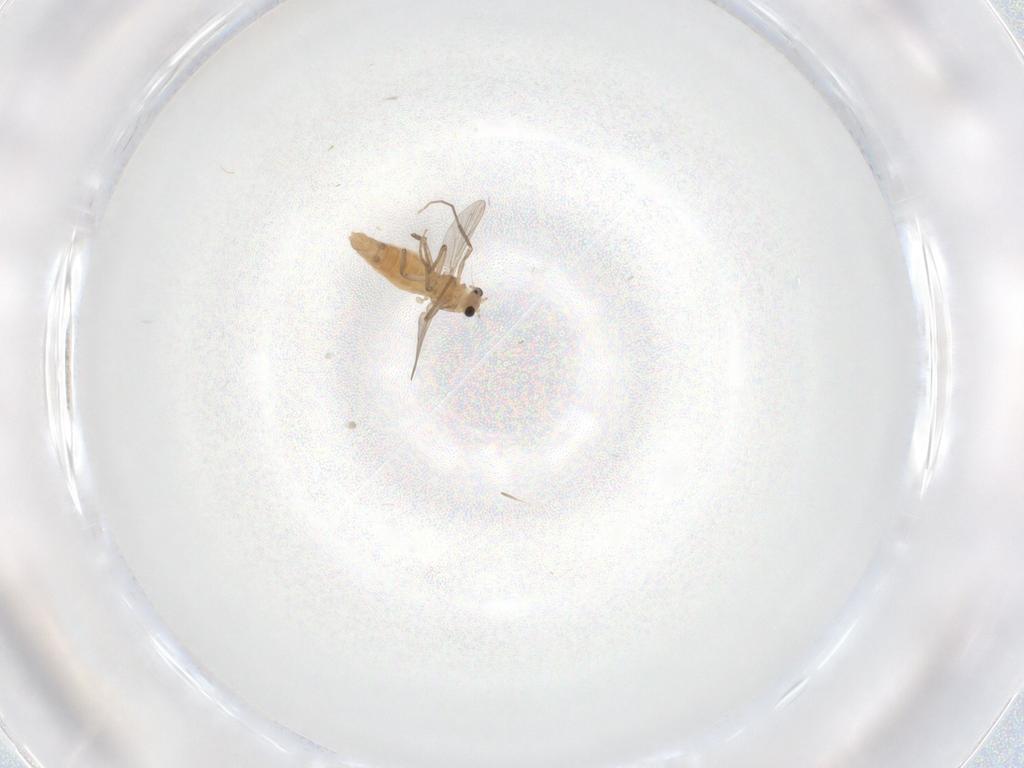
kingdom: Animalia
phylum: Arthropoda
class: Insecta
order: Diptera
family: Chironomidae
